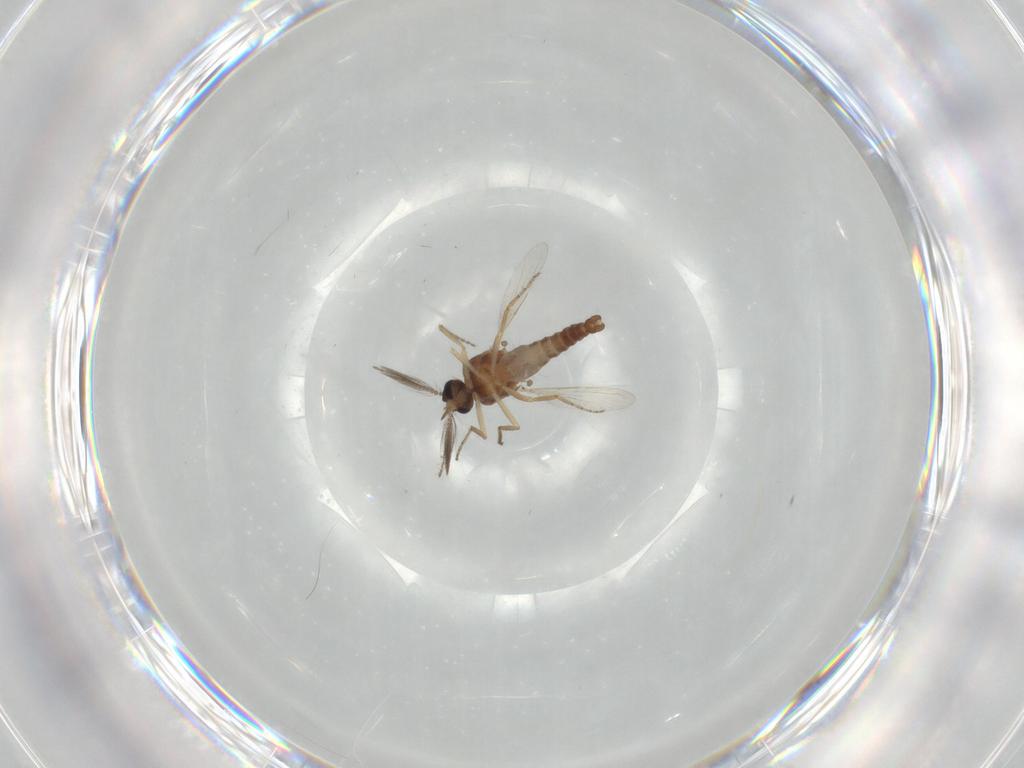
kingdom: Animalia
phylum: Arthropoda
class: Insecta
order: Diptera
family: Ceratopogonidae
